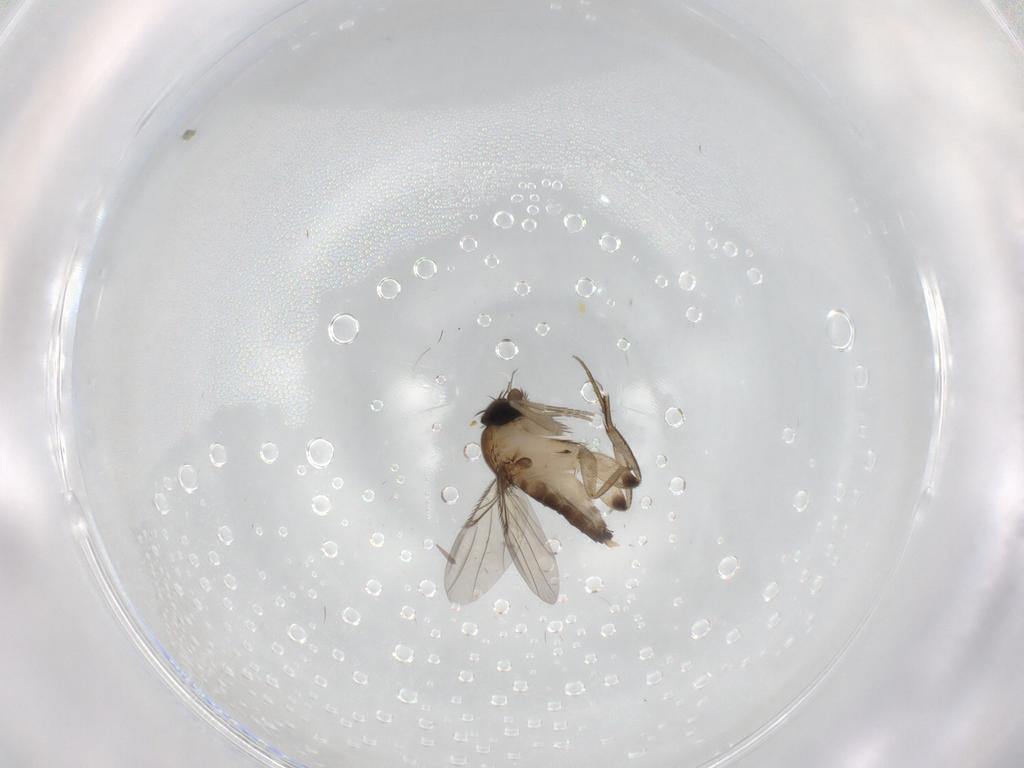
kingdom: Animalia
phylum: Arthropoda
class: Insecta
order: Diptera
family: Phoridae
